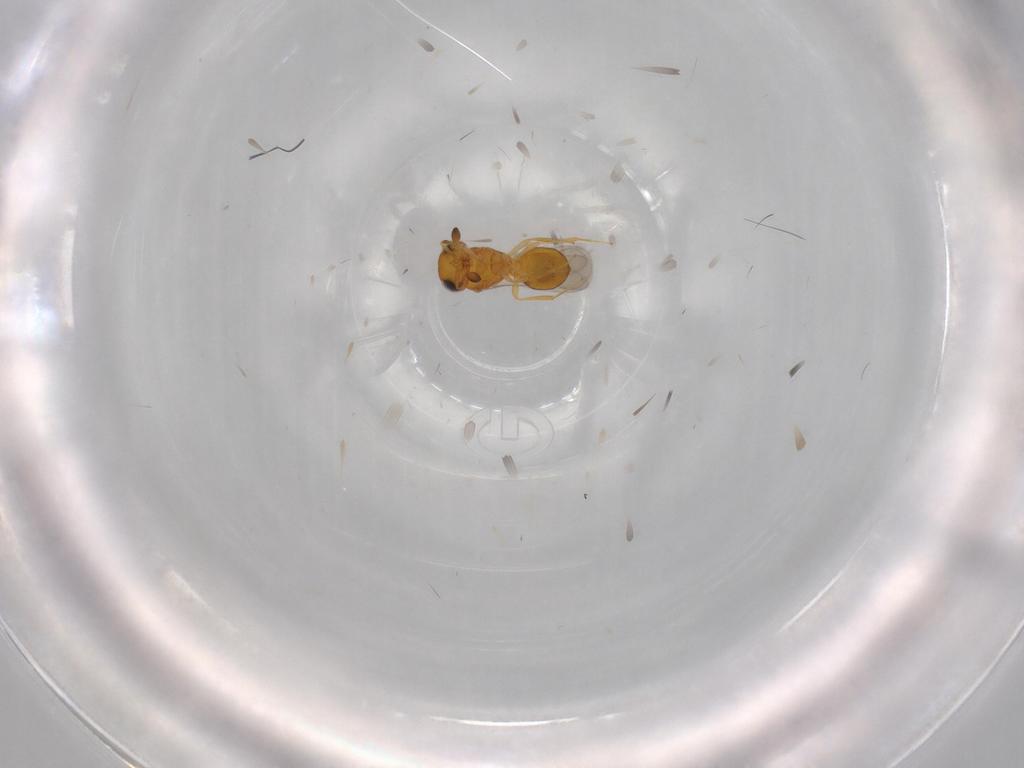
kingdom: Animalia
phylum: Arthropoda
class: Insecta
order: Hymenoptera
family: Scelionidae
